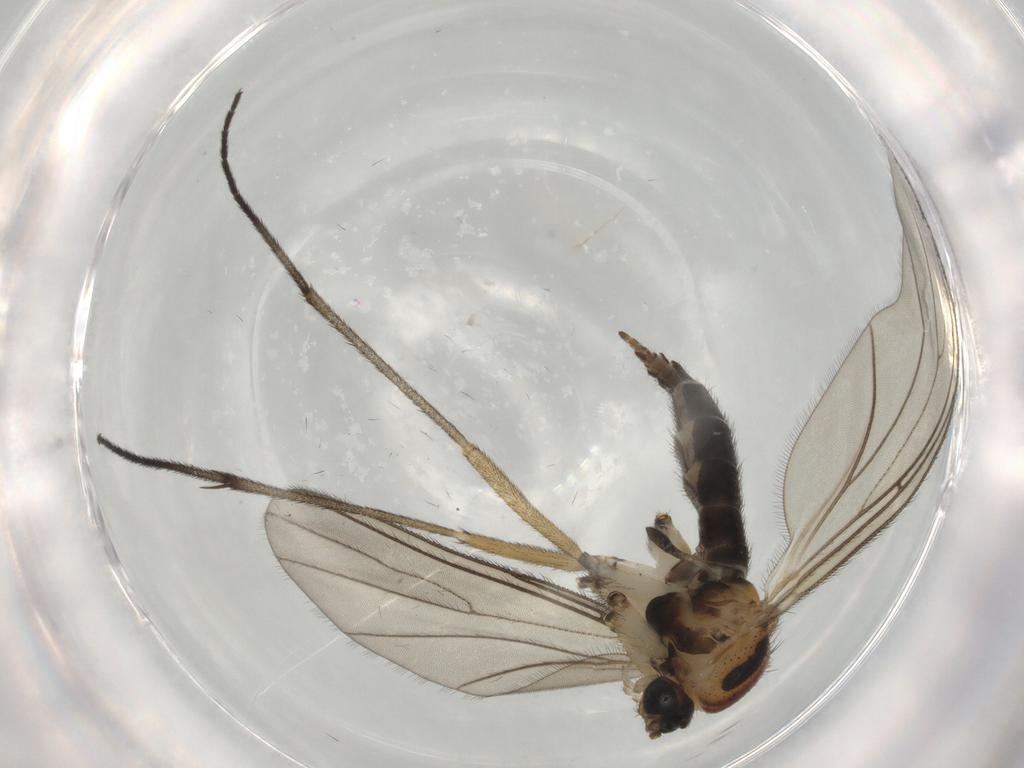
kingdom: Animalia
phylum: Arthropoda
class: Insecta
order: Diptera
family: Sciaridae
